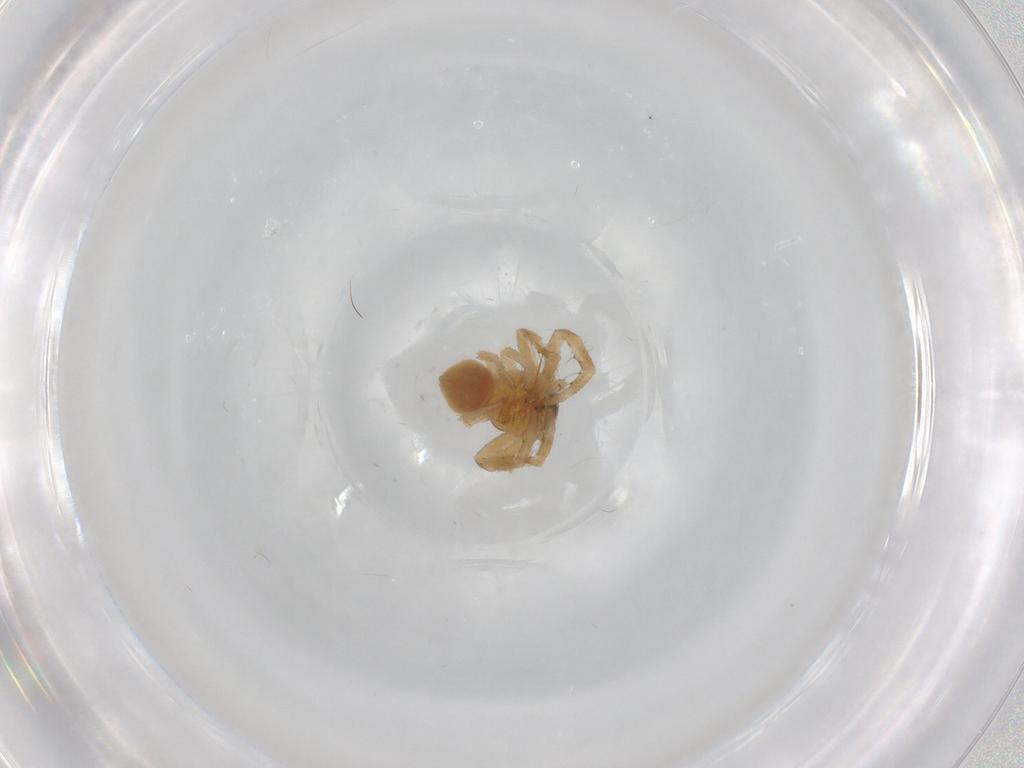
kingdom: Animalia
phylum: Arthropoda
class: Arachnida
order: Araneae
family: Thomisidae
